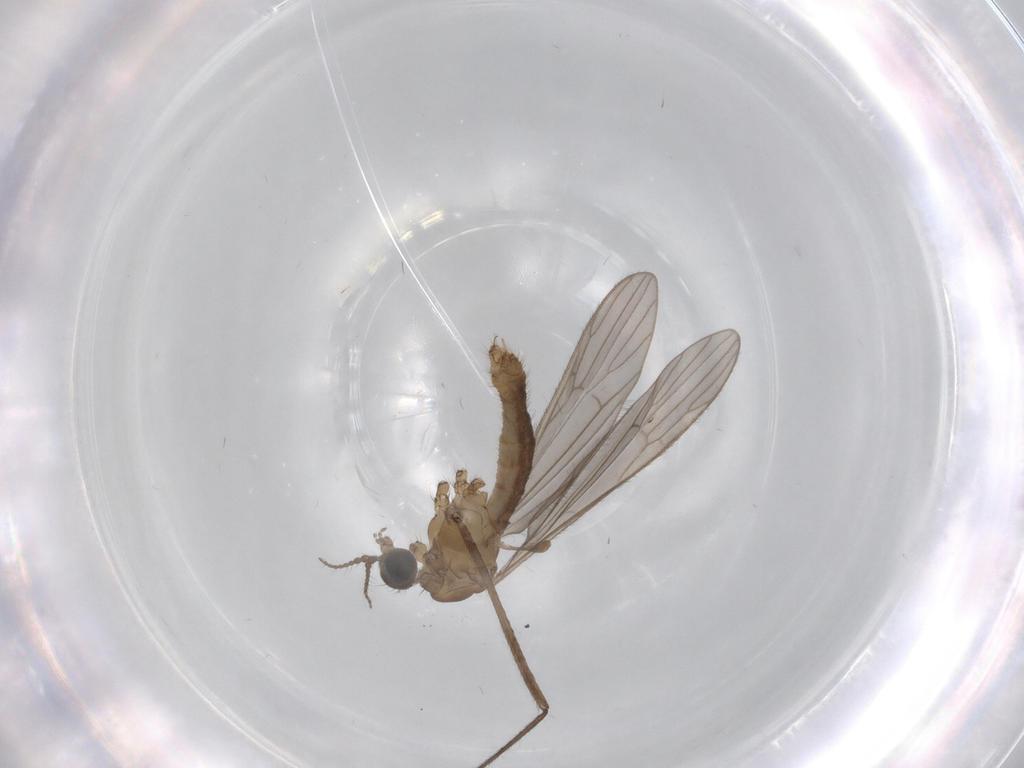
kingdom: Animalia
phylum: Arthropoda
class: Insecta
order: Diptera
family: Limoniidae
